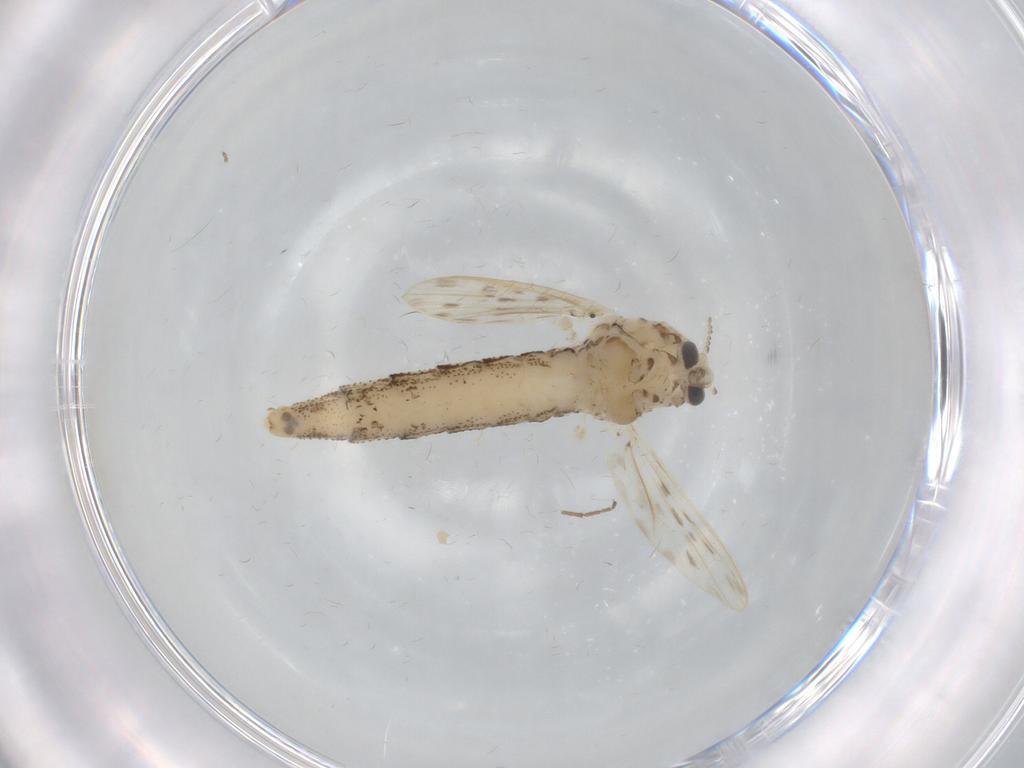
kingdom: Animalia
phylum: Arthropoda
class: Insecta
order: Diptera
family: Chaoboridae
